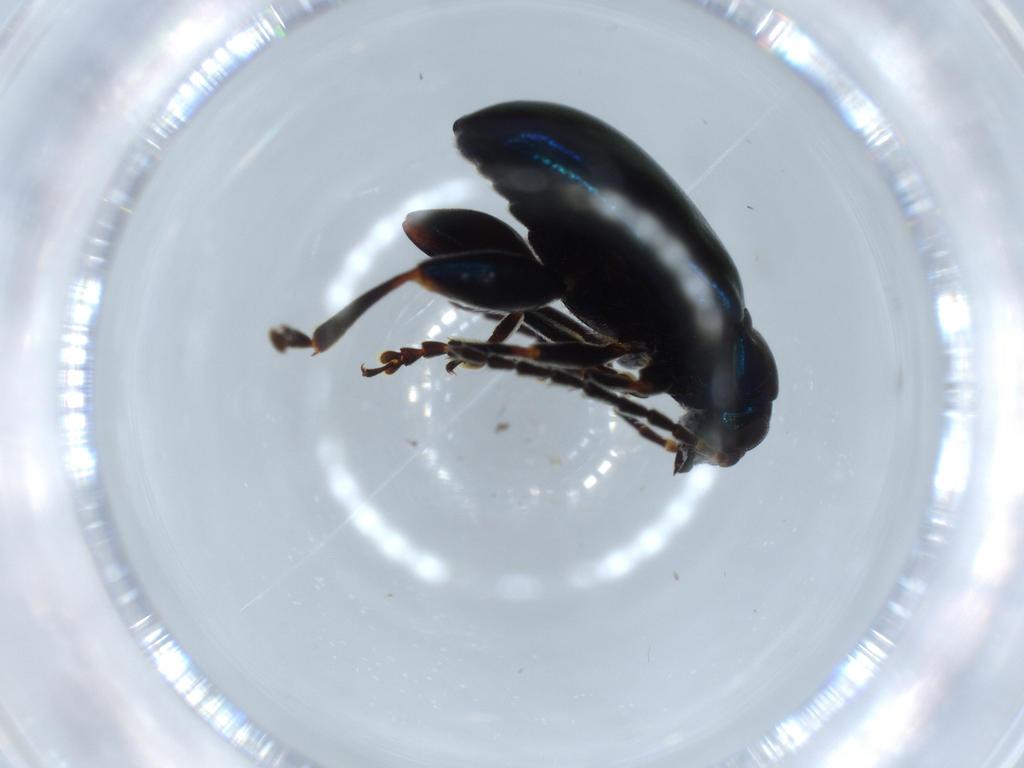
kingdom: Animalia
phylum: Arthropoda
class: Insecta
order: Coleoptera
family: Chrysomelidae
